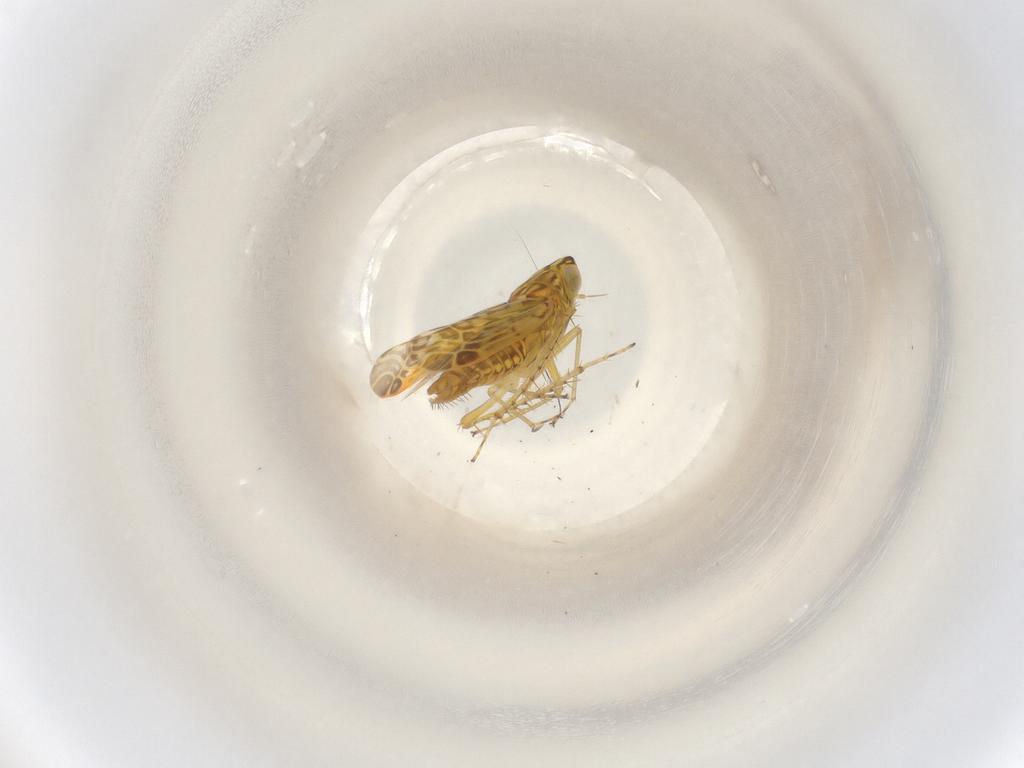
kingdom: Animalia
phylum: Arthropoda
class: Insecta
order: Hemiptera
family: Cicadellidae
